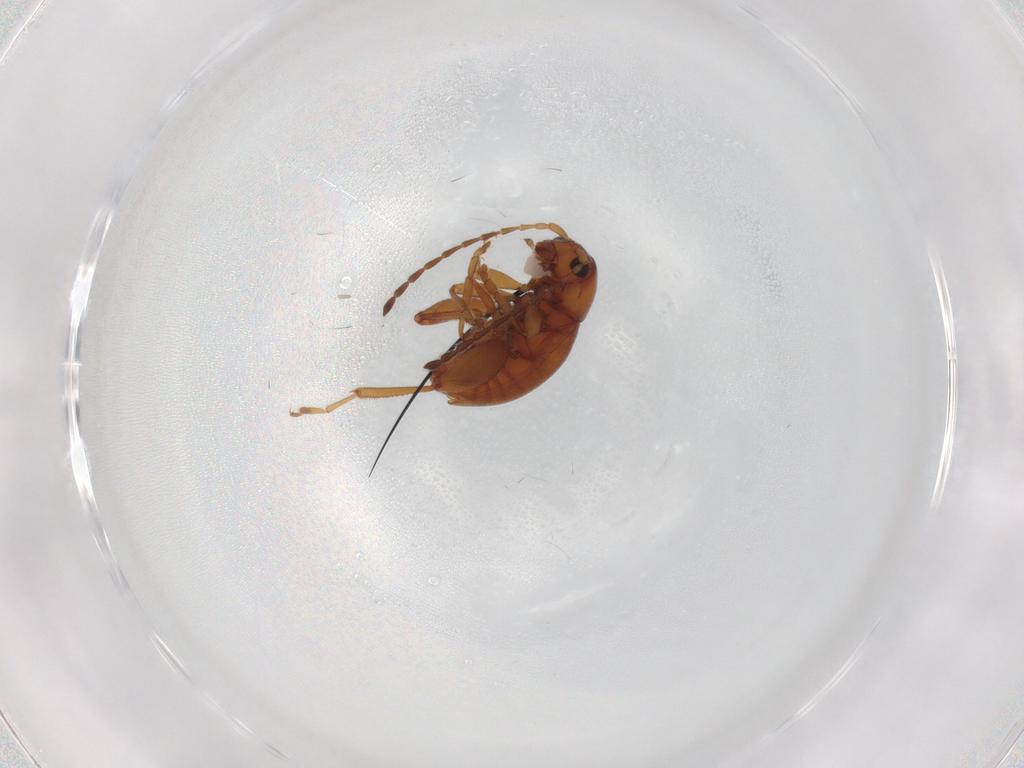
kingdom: Animalia
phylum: Arthropoda
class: Insecta
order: Coleoptera
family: Chrysomelidae
